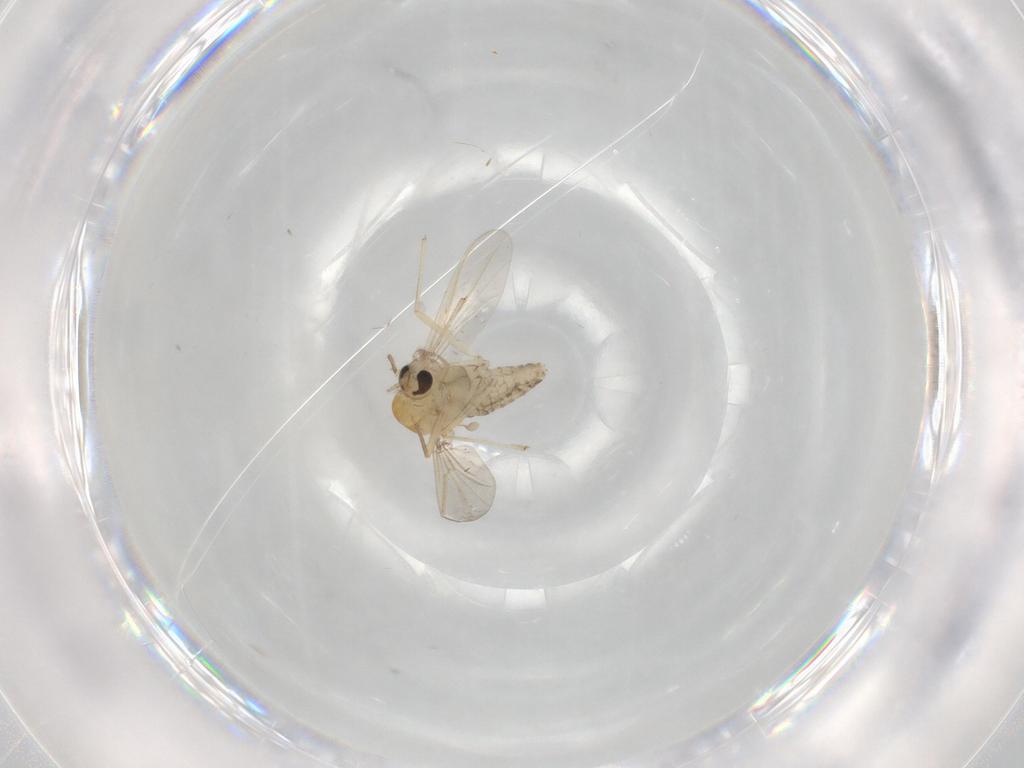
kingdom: Animalia
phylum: Arthropoda
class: Insecta
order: Diptera
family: Chironomidae
